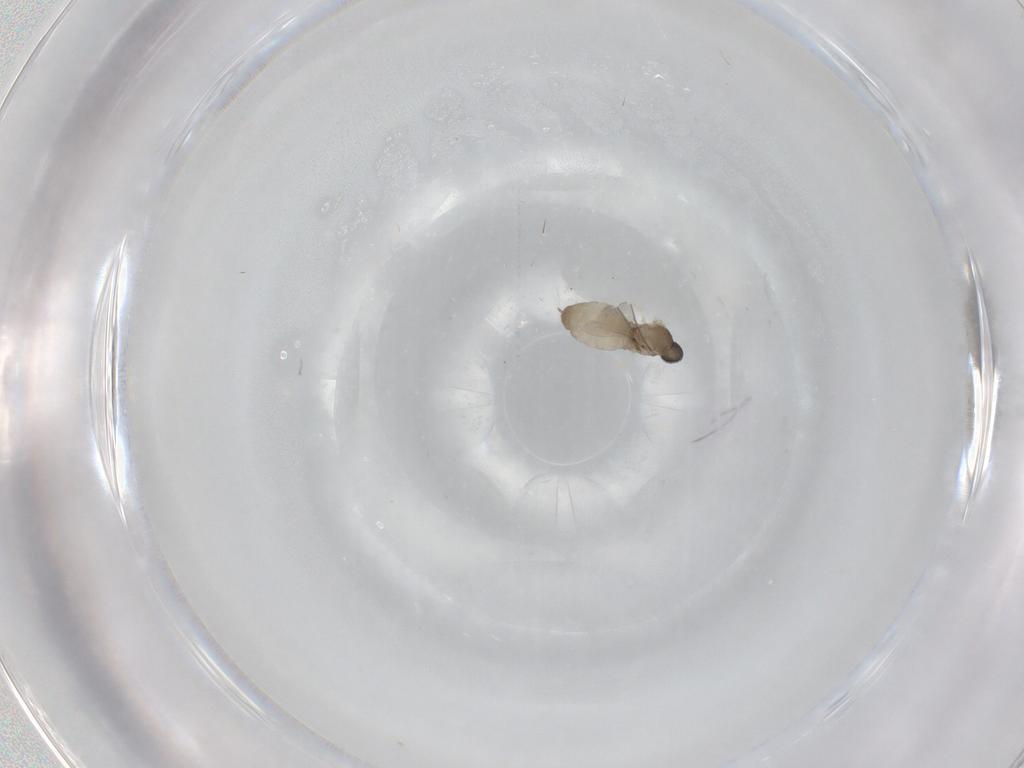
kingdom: Animalia
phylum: Arthropoda
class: Insecta
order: Diptera
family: Limoniidae
